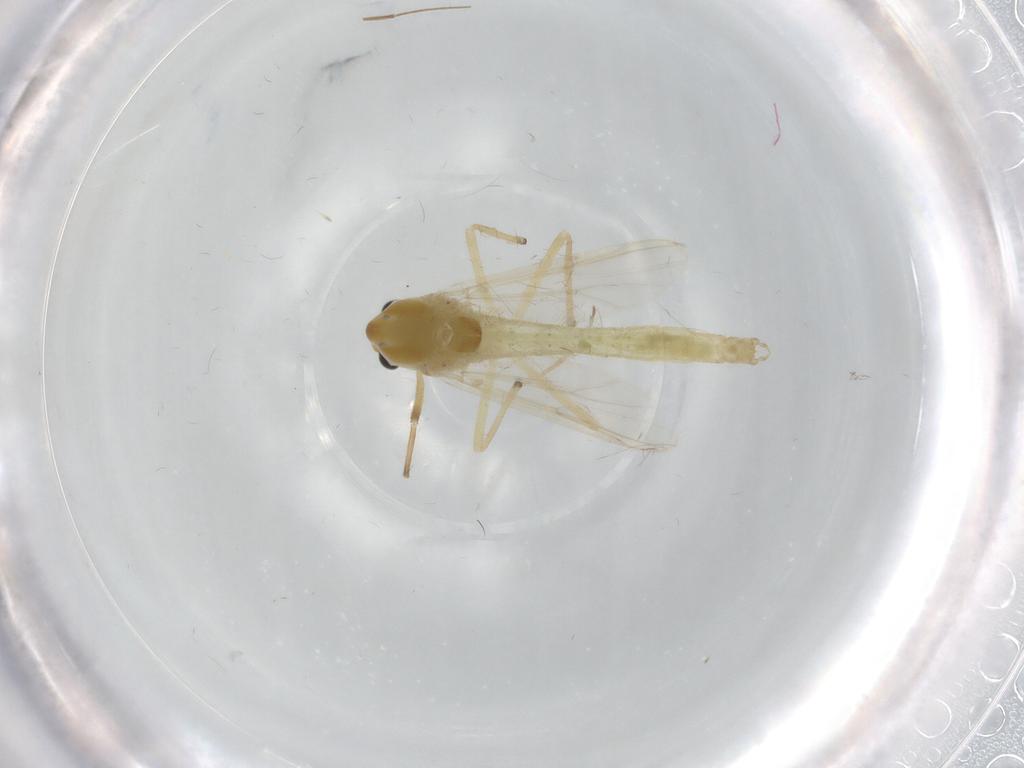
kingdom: Animalia
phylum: Arthropoda
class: Insecta
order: Diptera
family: Chironomidae
